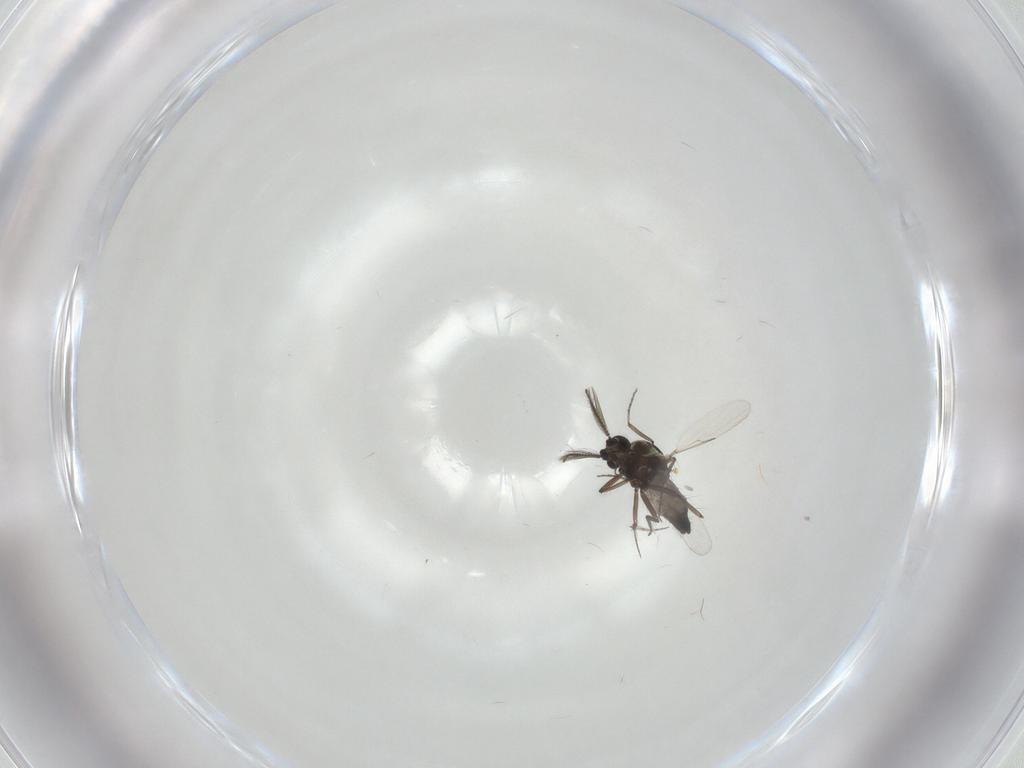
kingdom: Animalia
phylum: Arthropoda
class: Insecta
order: Diptera
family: Ceratopogonidae
